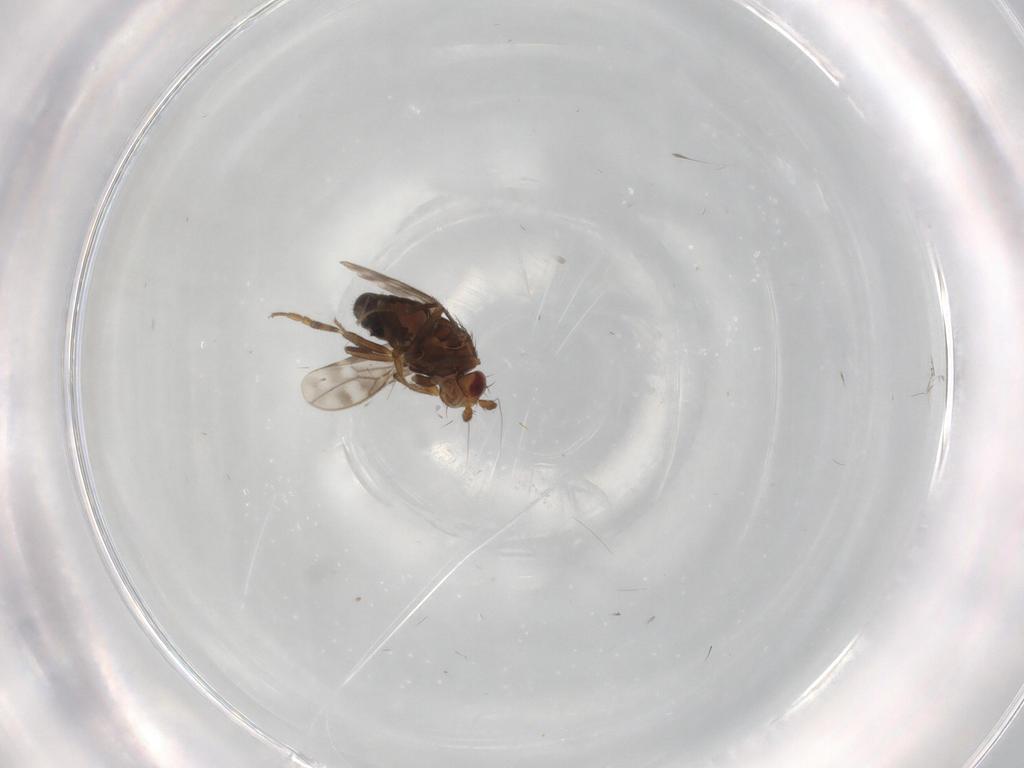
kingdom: Animalia
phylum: Arthropoda
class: Insecta
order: Diptera
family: Sphaeroceridae
